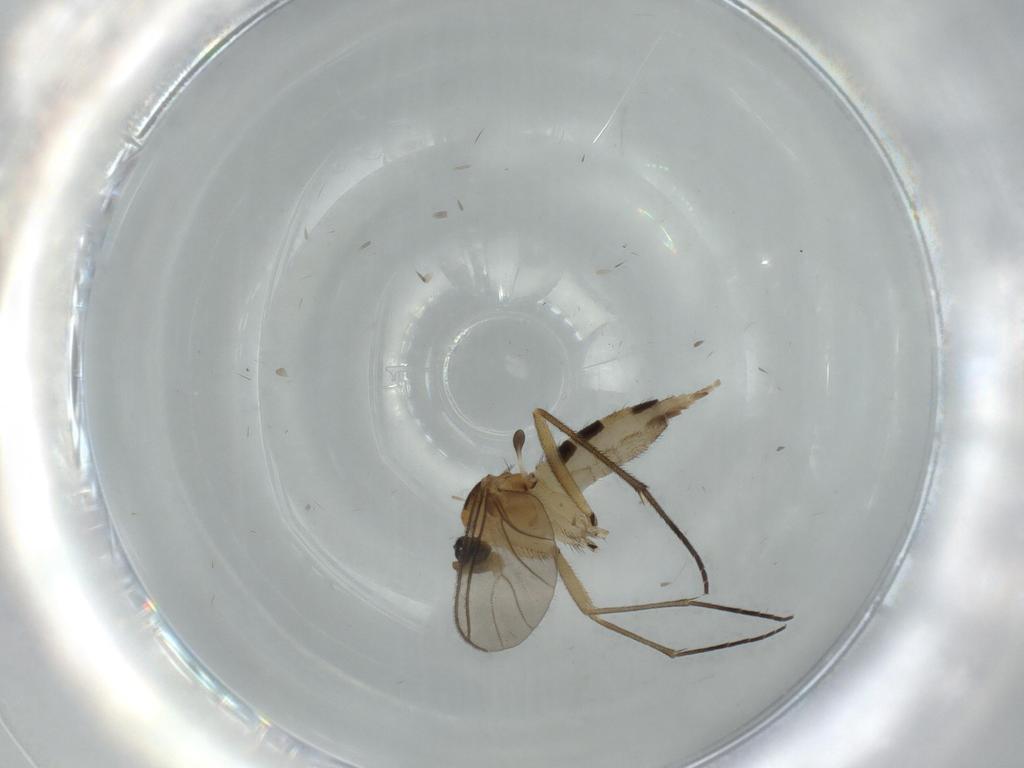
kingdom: Animalia
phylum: Arthropoda
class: Insecta
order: Diptera
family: Sciaridae
